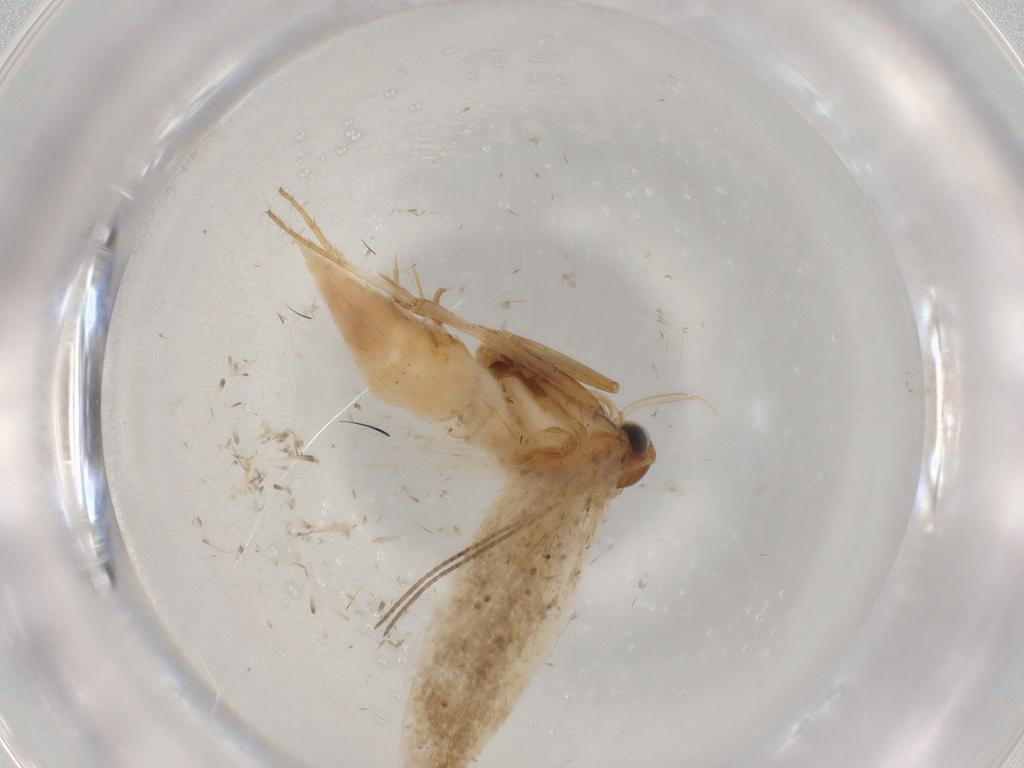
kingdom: Animalia
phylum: Arthropoda
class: Insecta
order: Lepidoptera
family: Gelechiidae
